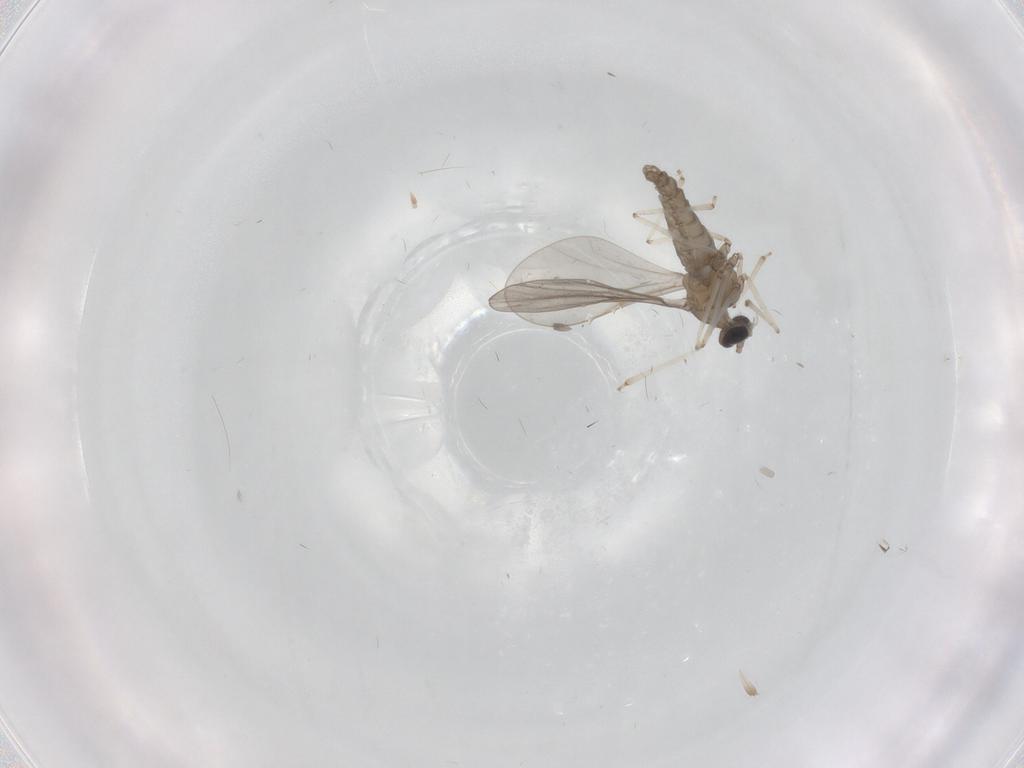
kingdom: Animalia
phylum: Arthropoda
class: Insecta
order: Diptera
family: Cecidomyiidae
